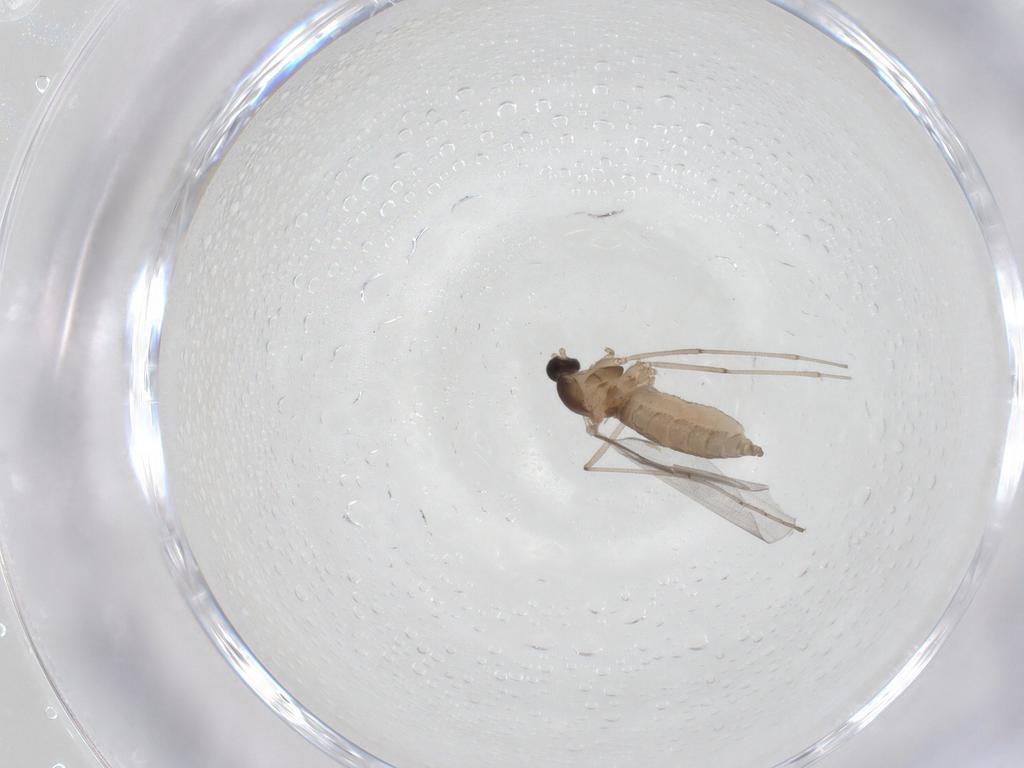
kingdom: Animalia
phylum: Arthropoda
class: Insecta
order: Diptera
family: Cecidomyiidae
